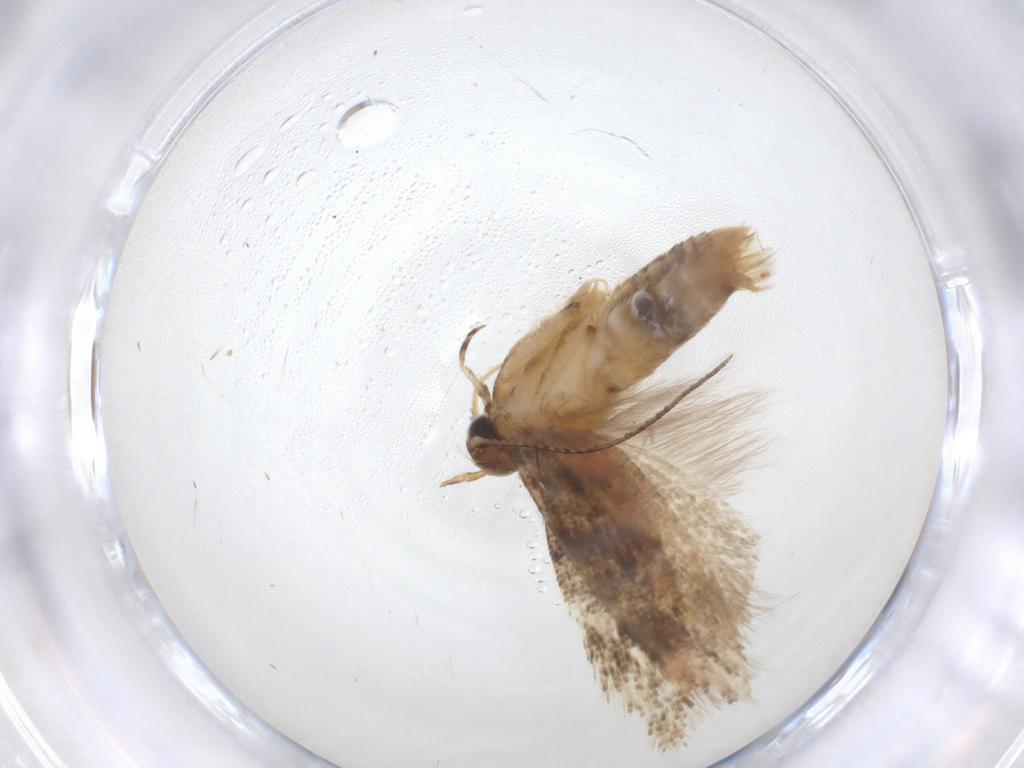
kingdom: Animalia
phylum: Arthropoda
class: Insecta
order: Lepidoptera
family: Gelechiidae
